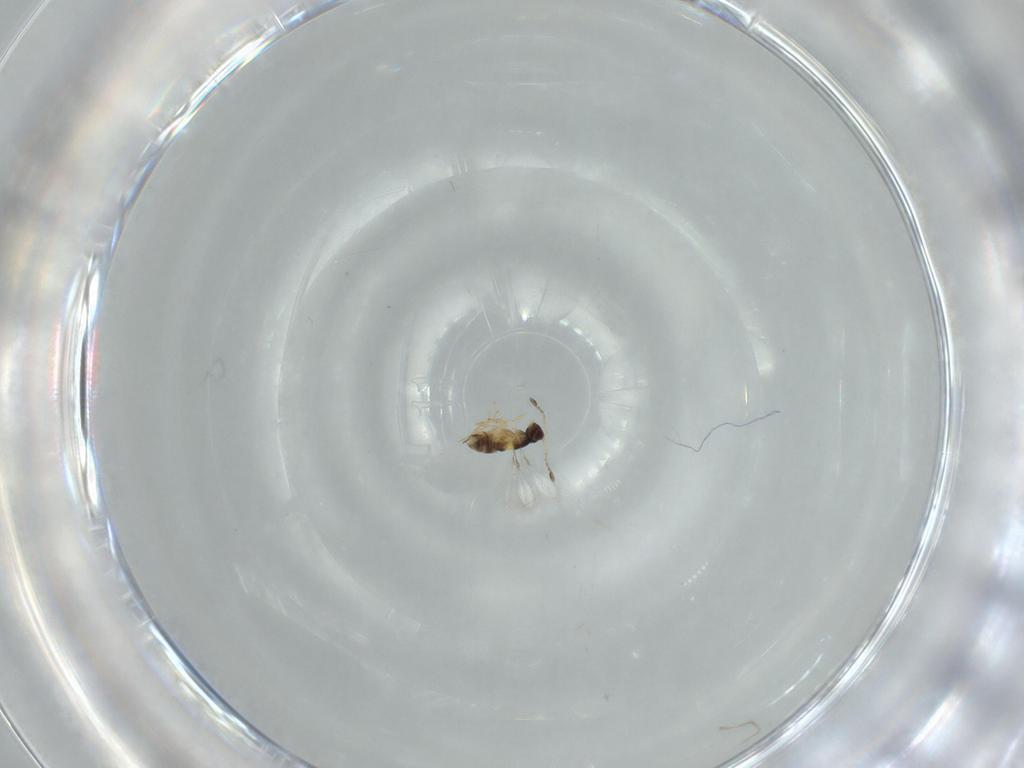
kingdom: Animalia
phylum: Arthropoda
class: Insecta
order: Hymenoptera
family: Mymaridae
